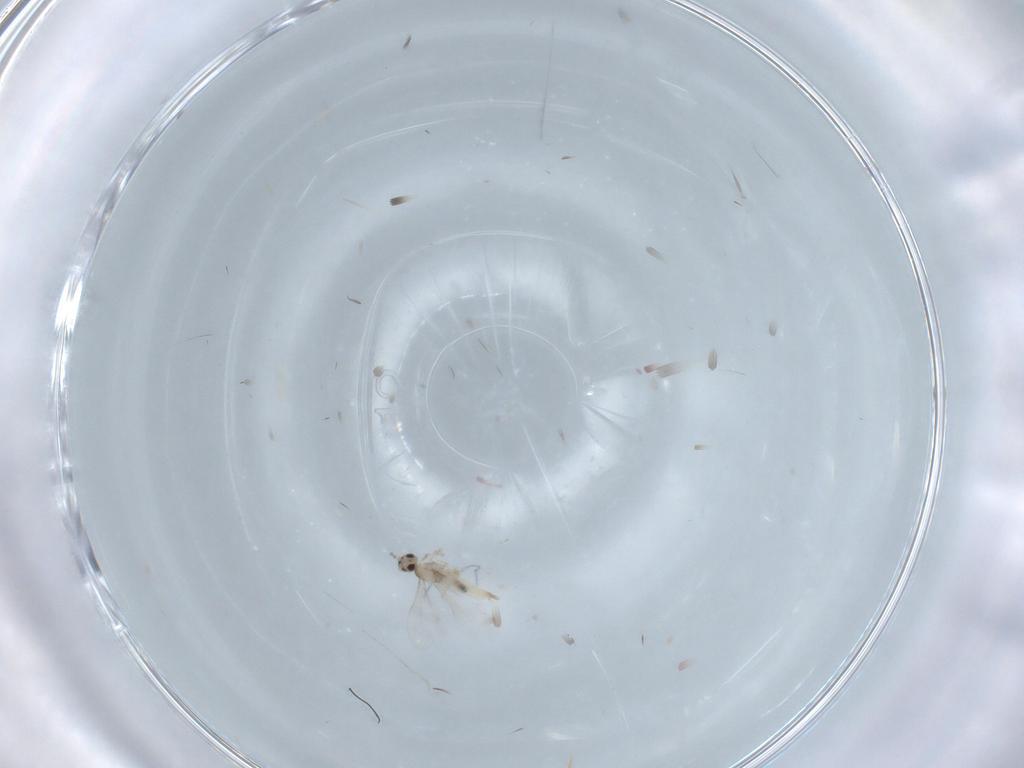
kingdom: Animalia
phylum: Arthropoda
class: Insecta
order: Diptera
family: Cecidomyiidae
